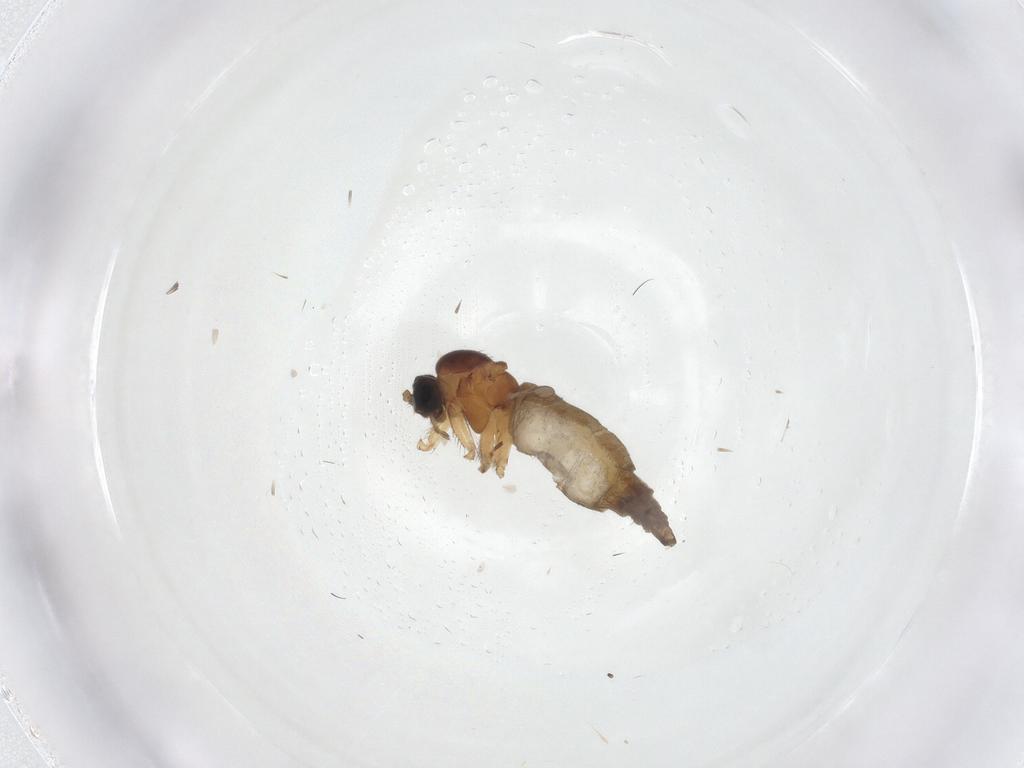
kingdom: Animalia
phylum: Arthropoda
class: Insecta
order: Diptera
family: Sciaridae
